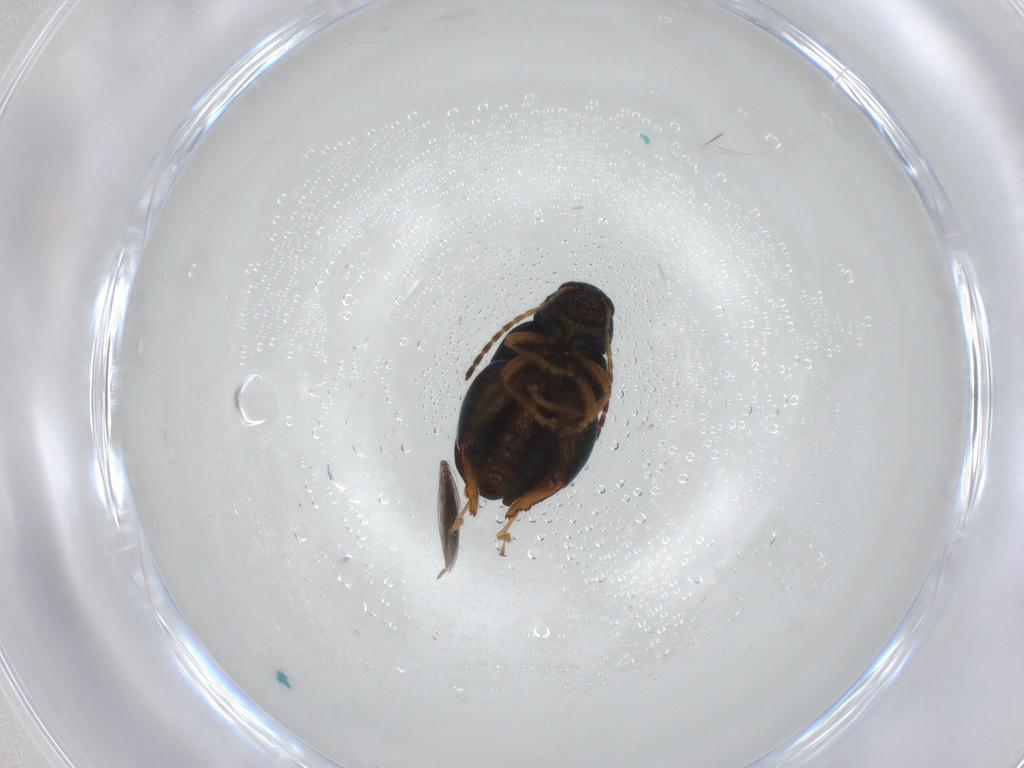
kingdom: Animalia
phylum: Arthropoda
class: Insecta
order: Coleoptera
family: Chrysomelidae
